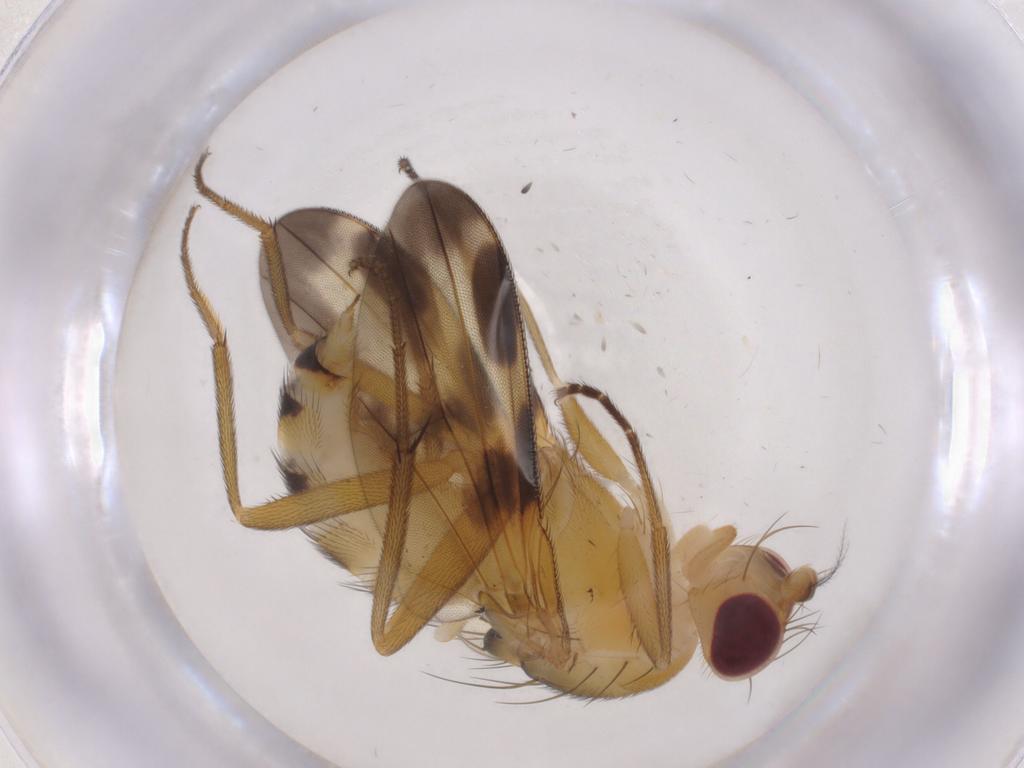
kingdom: Animalia
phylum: Arthropoda
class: Insecta
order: Diptera
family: Clusiidae
